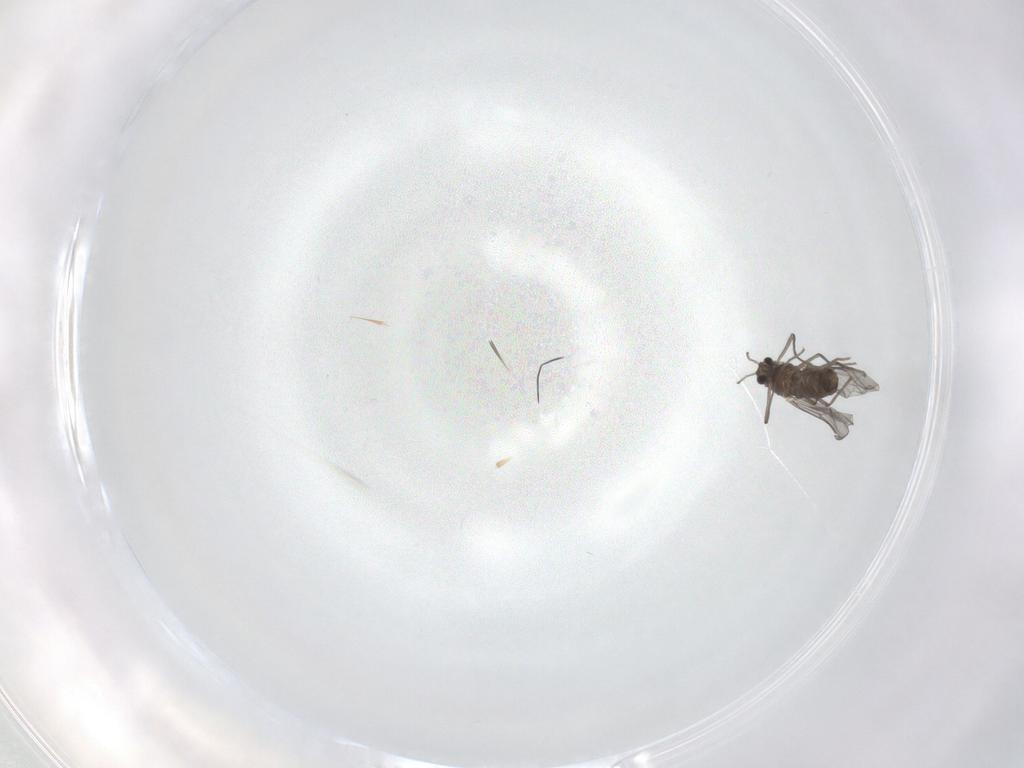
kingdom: Animalia
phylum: Arthropoda
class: Insecta
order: Diptera
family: Chironomidae
